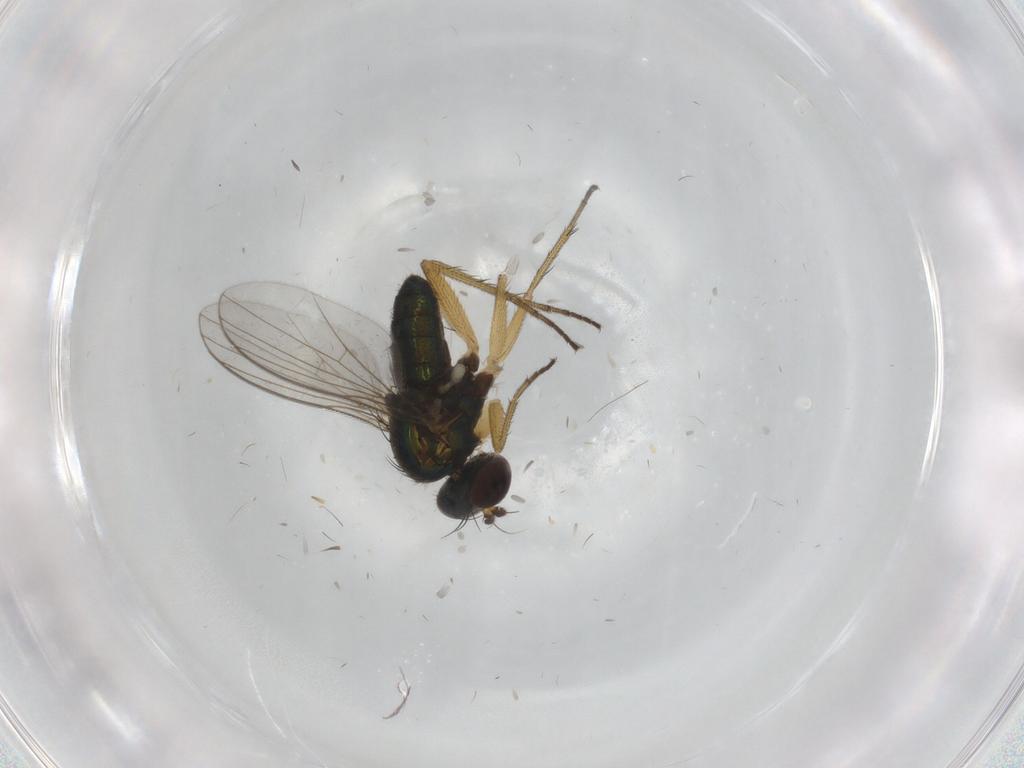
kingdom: Animalia
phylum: Arthropoda
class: Insecta
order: Diptera
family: Dolichopodidae
